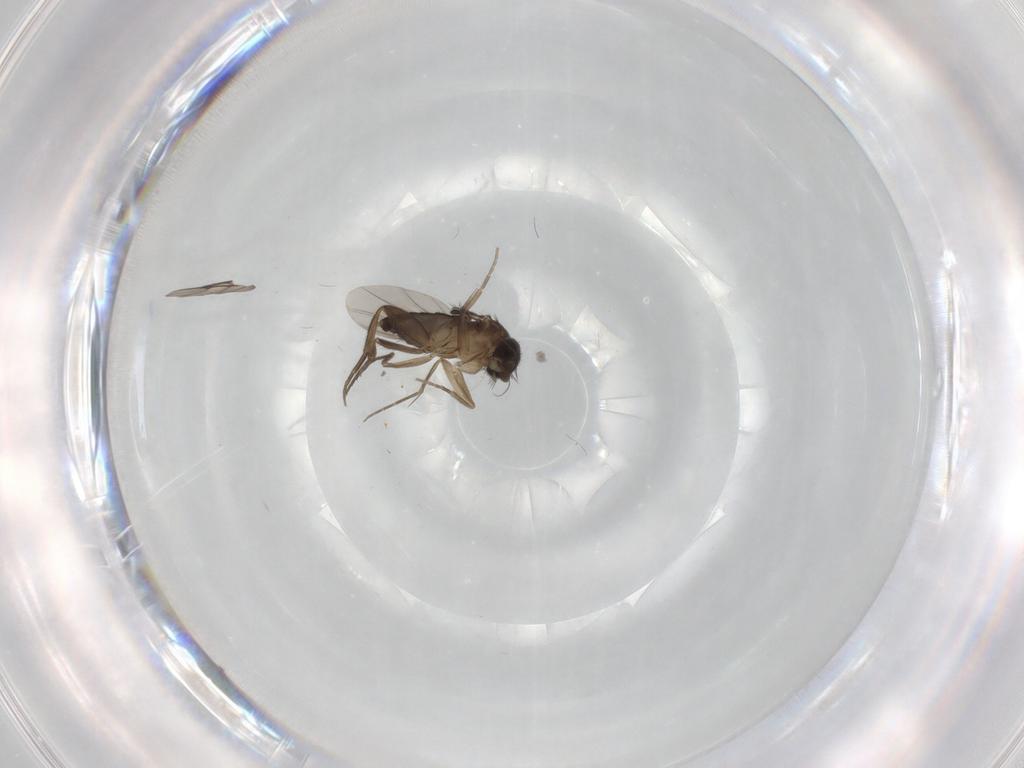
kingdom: Animalia
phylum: Arthropoda
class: Insecta
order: Diptera
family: Phoridae
